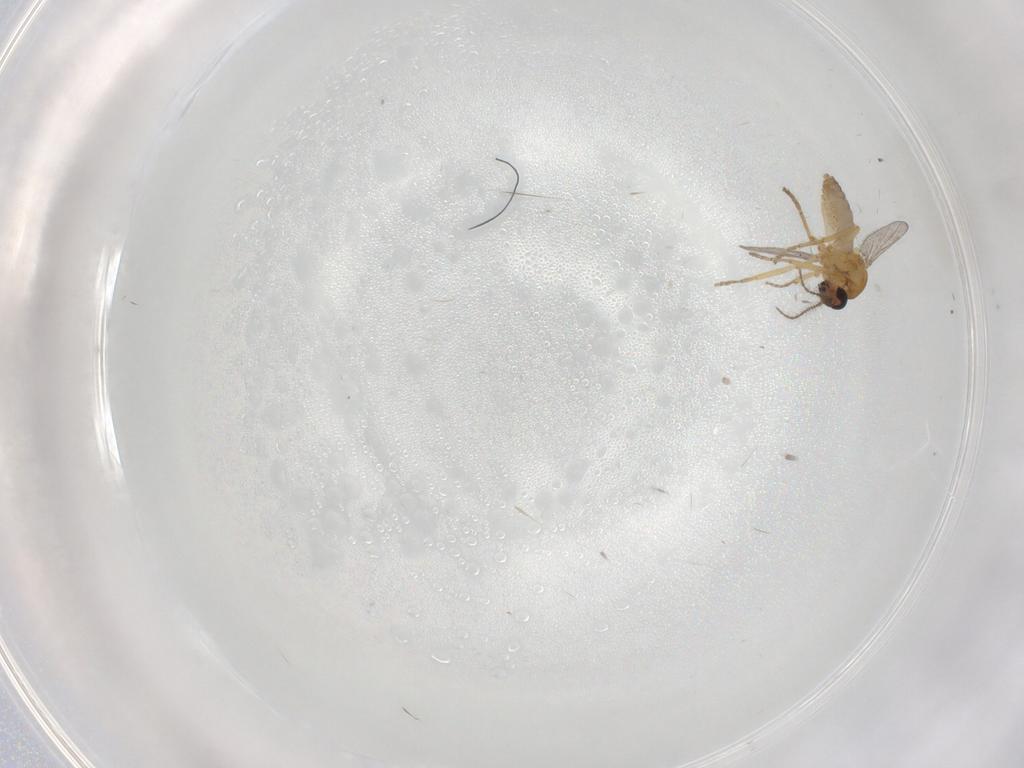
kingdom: Animalia
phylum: Arthropoda
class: Insecta
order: Diptera
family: Ceratopogonidae
